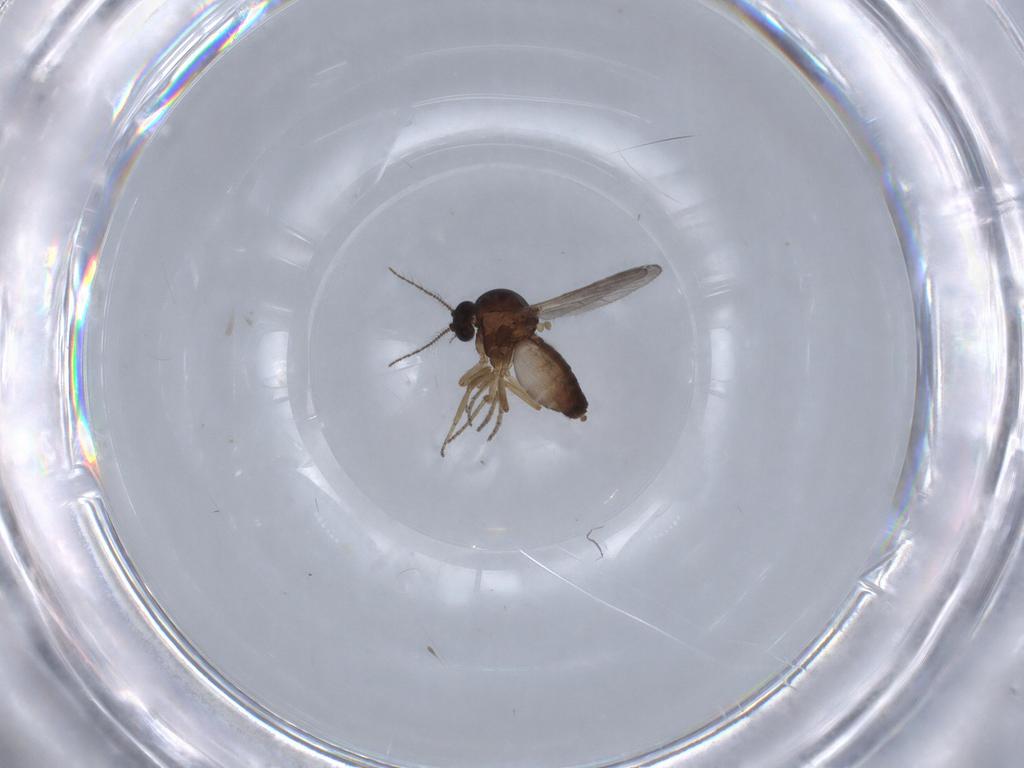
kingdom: Animalia
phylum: Arthropoda
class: Insecta
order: Diptera
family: Ceratopogonidae
